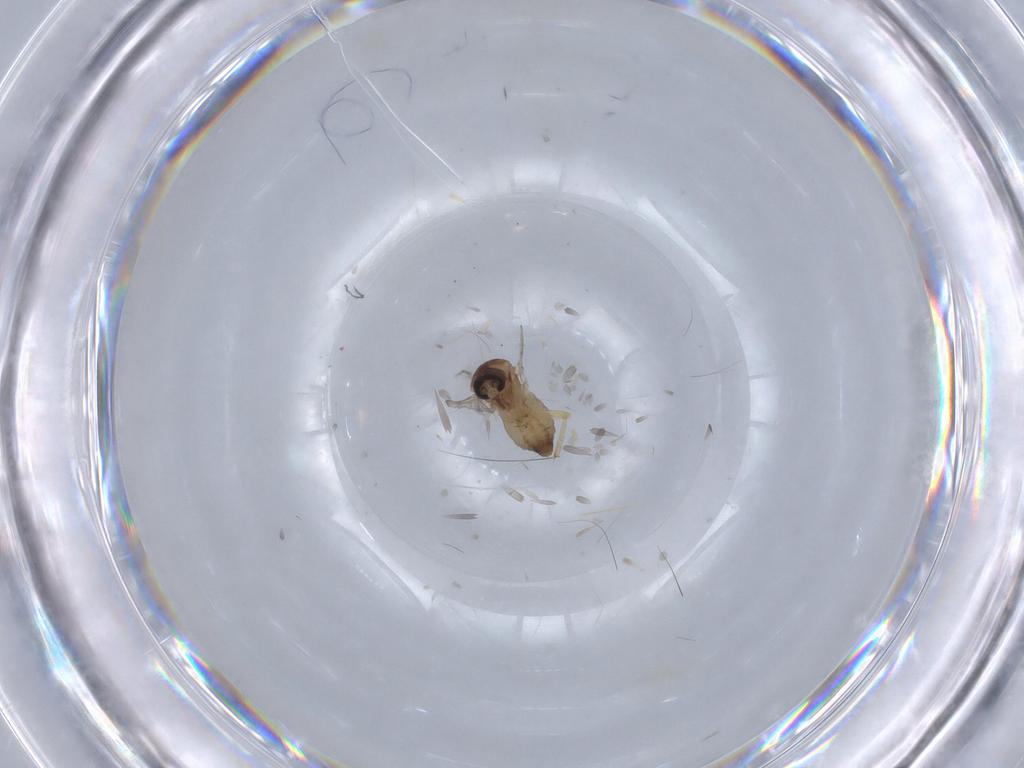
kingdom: Animalia
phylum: Arthropoda
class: Insecta
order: Diptera
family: Ceratopogonidae
